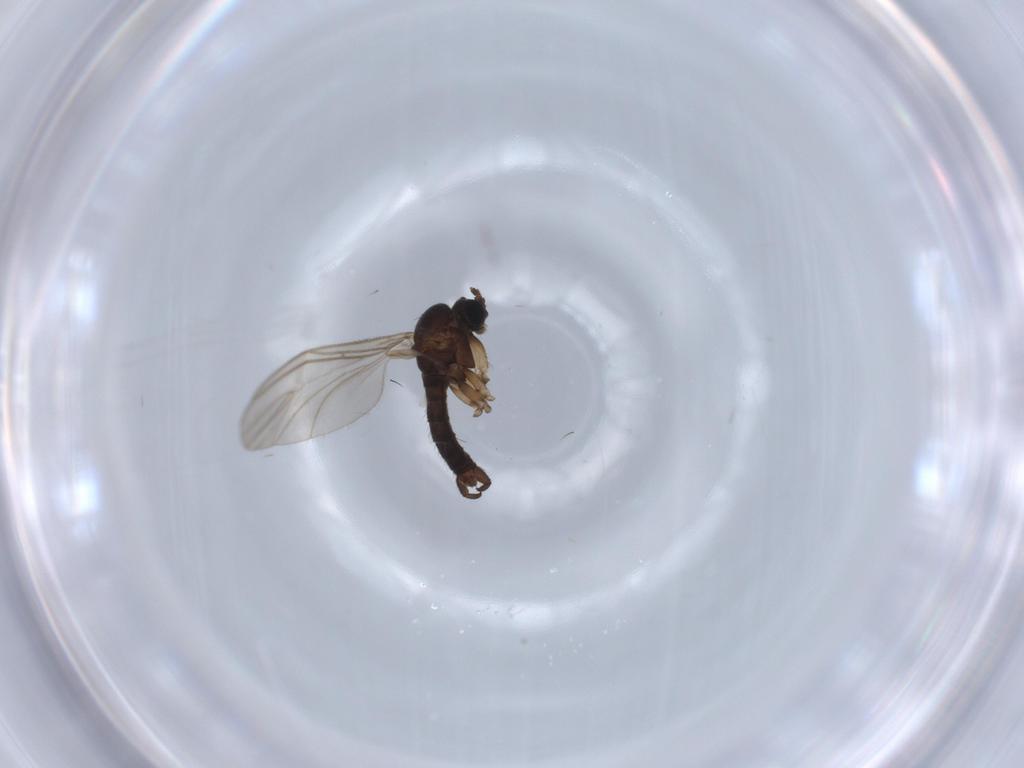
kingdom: Animalia
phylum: Arthropoda
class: Insecta
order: Diptera
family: Sciaridae
